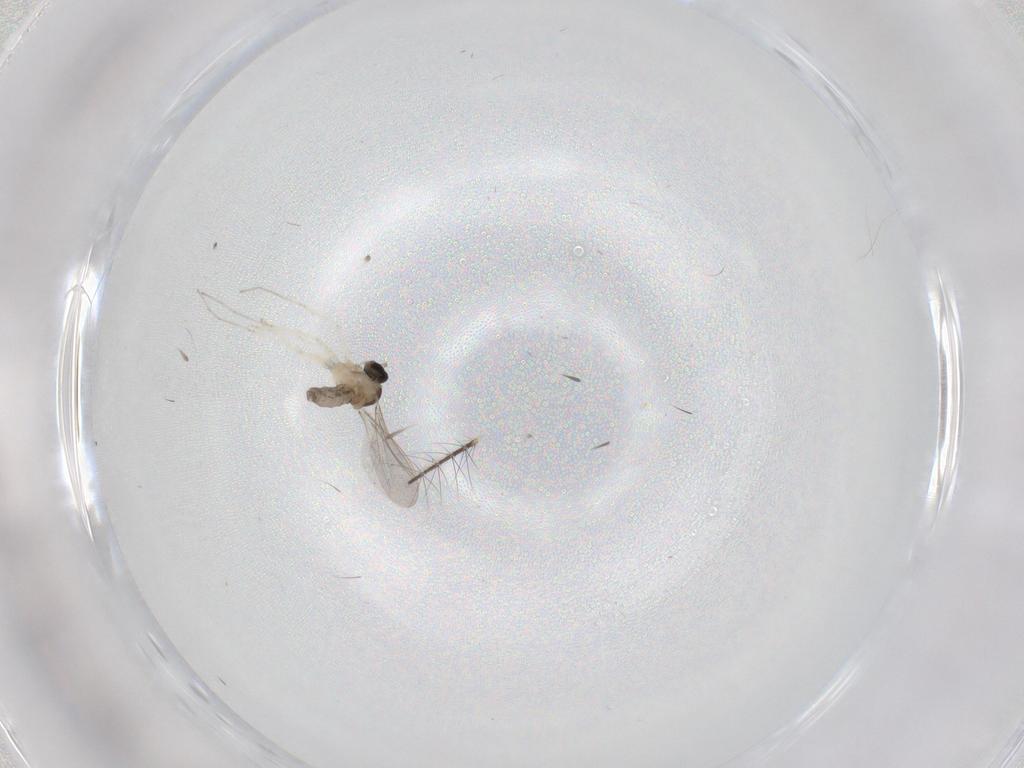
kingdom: Animalia
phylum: Arthropoda
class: Insecta
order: Diptera
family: Cecidomyiidae
